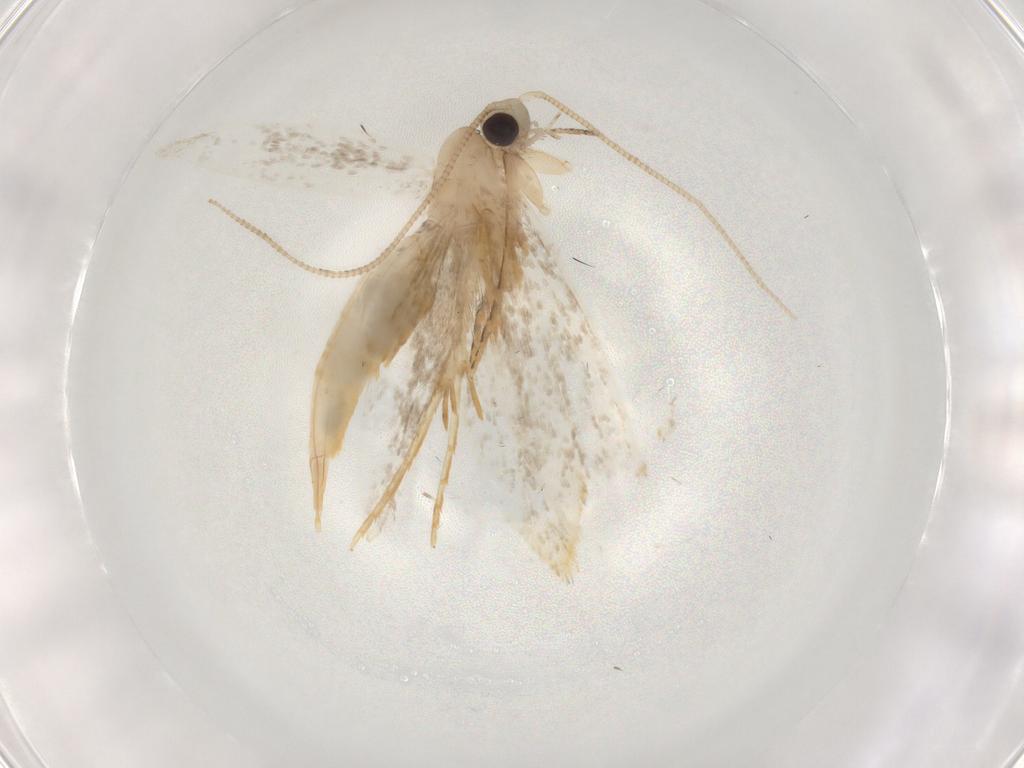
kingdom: Animalia
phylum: Arthropoda
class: Insecta
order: Lepidoptera
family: Tineidae
